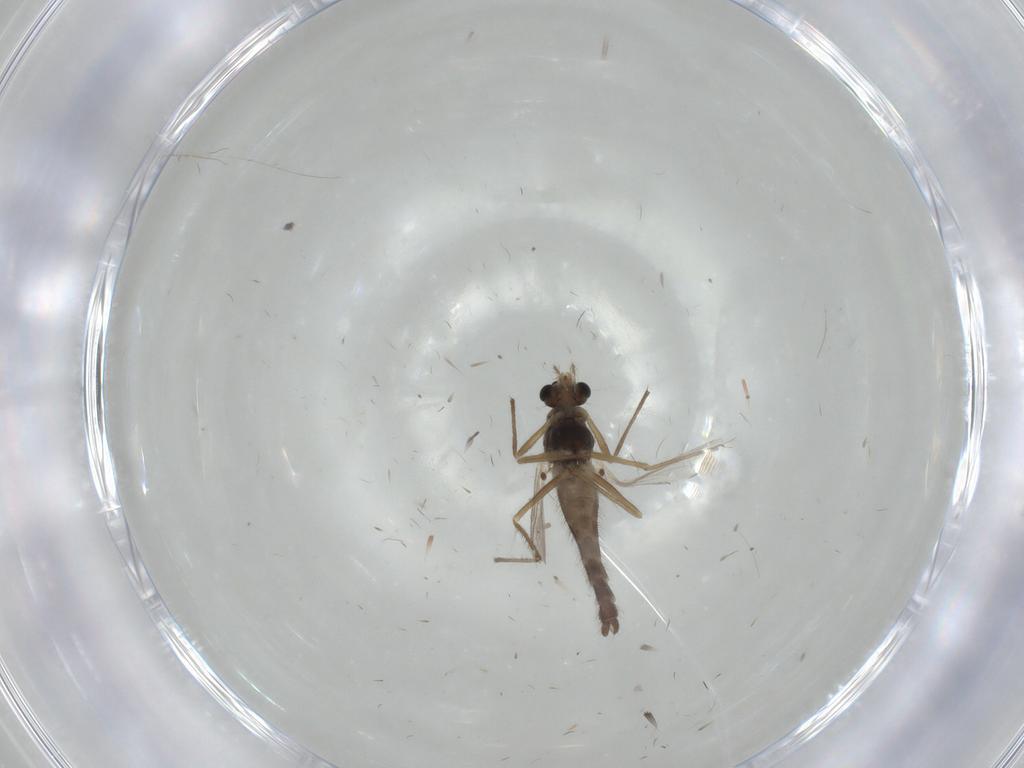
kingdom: Animalia
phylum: Arthropoda
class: Insecta
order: Diptera
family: Chironomidae
